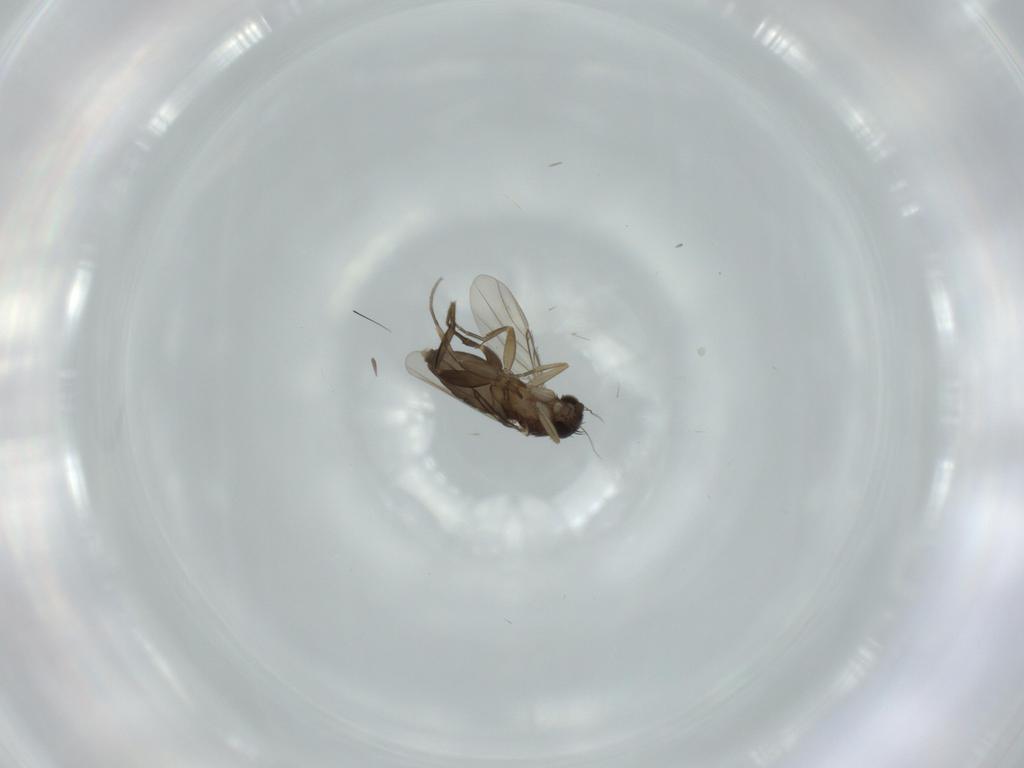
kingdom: Animalia
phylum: Arthropoda
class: Insecta
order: Diptera
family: Phoridae
